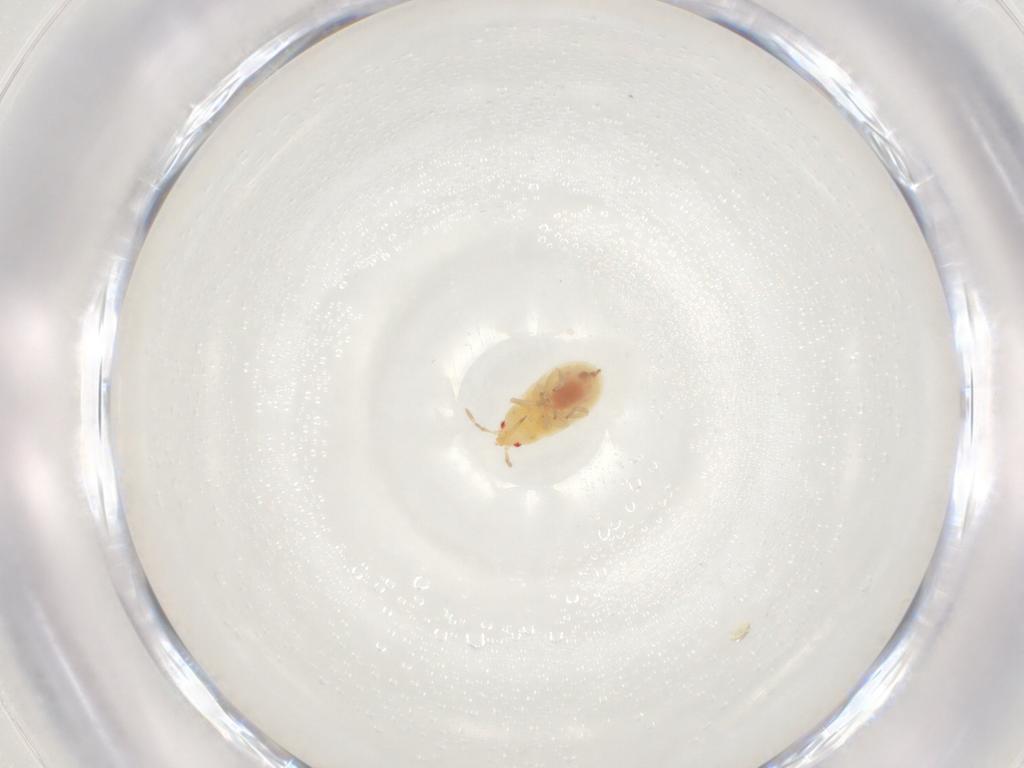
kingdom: Animalia
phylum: Arthropoda
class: Insecta
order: Hemiptera
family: Anthocoridae
